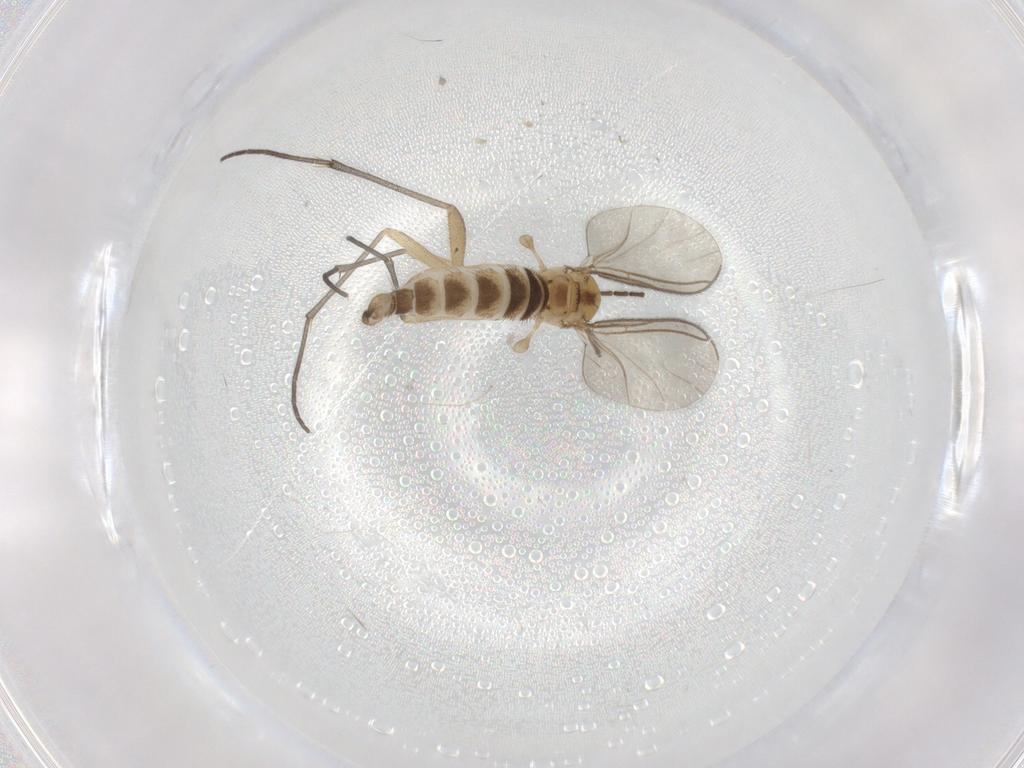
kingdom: Animalia
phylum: Arthropoda
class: Insecta
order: Diptera
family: Sciaridae
